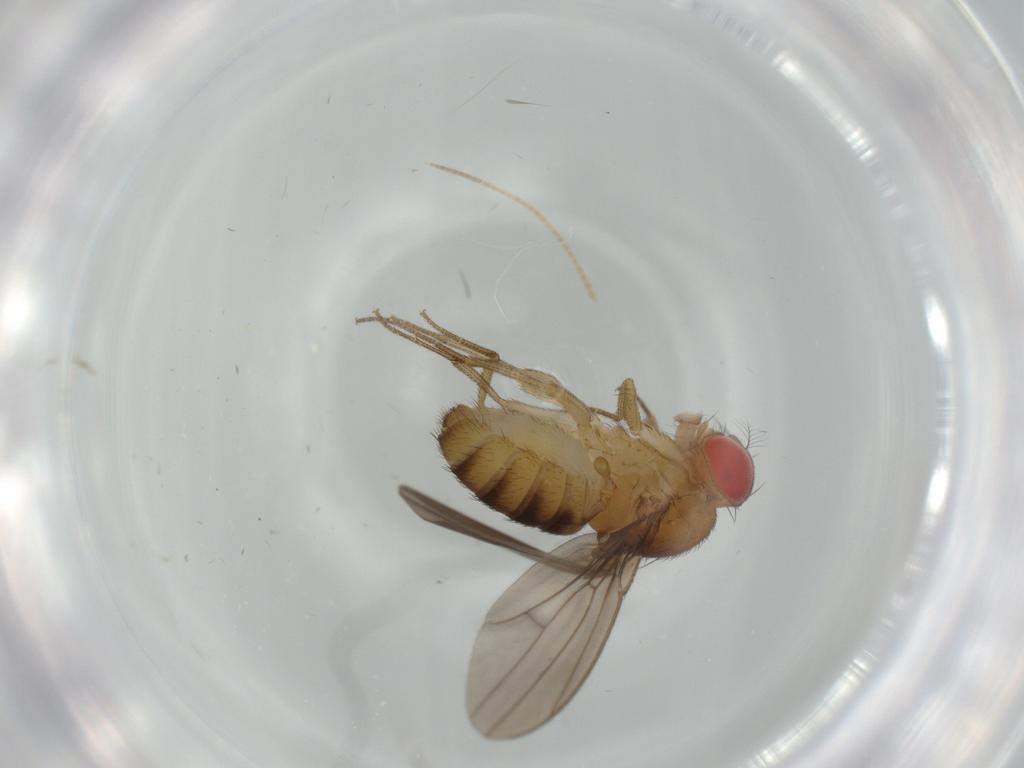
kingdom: Animalia
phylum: Arthropoda
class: Insecta
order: Diptera
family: Drosophilidae
